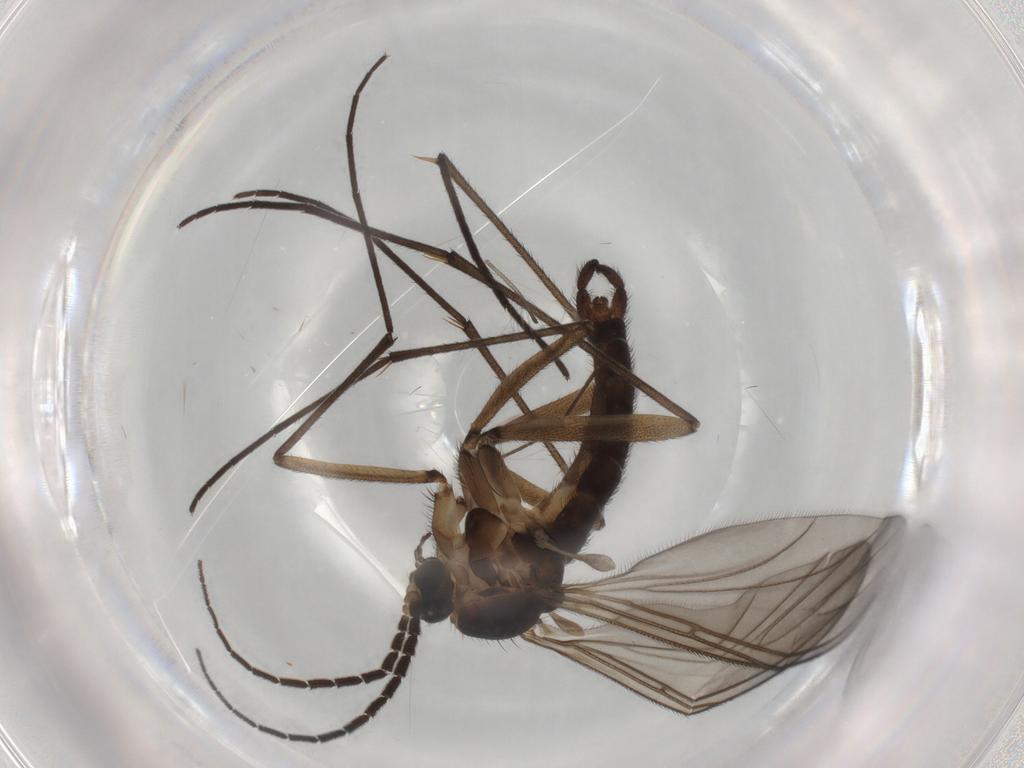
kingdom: Animalia
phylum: Arthropoda
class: Insecta
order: Diptera
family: Sciaridae
